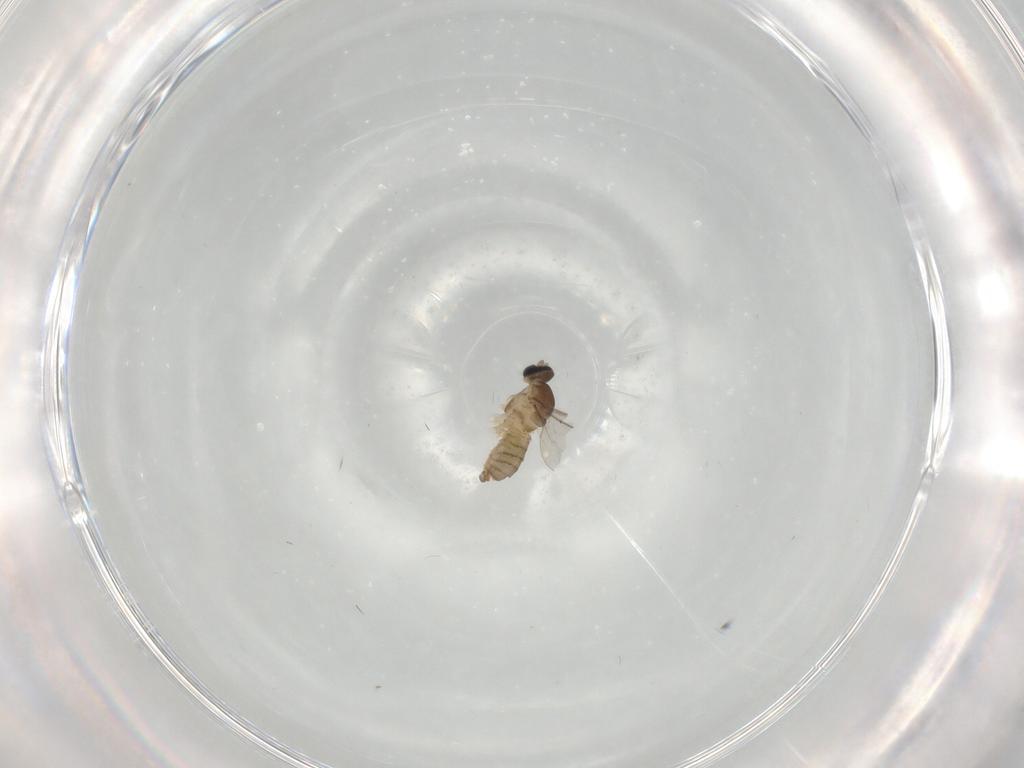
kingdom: Animalia
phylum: Arthropoda
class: Insecta
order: Diptera
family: Cecidomyiidae
